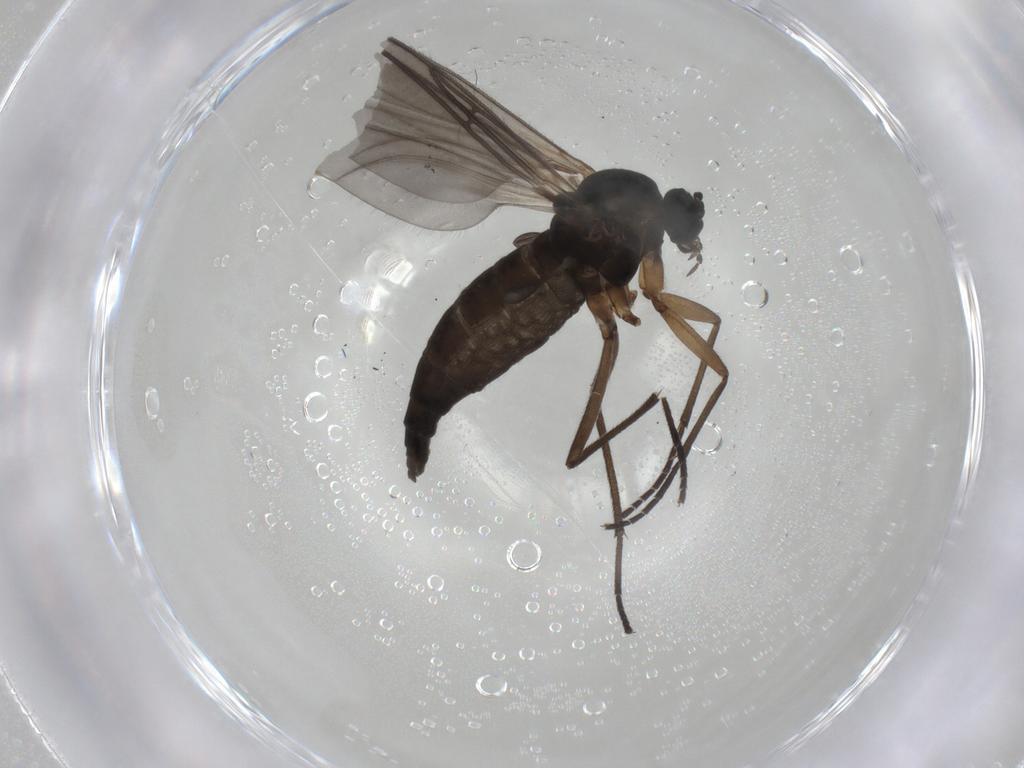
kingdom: Animalia
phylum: Arthropoda
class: Insecta
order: Diptera
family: Sciaridae
